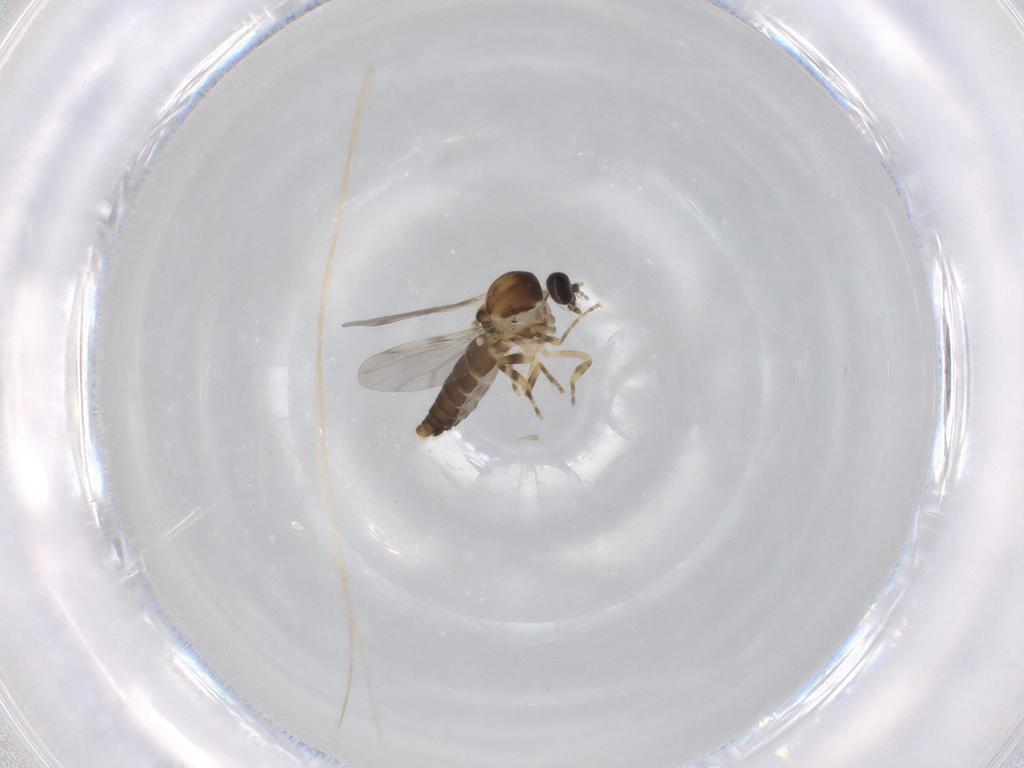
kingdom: Animalia
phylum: Arthropoda
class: Insecta
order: Diptera
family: Ceratopogonidae
